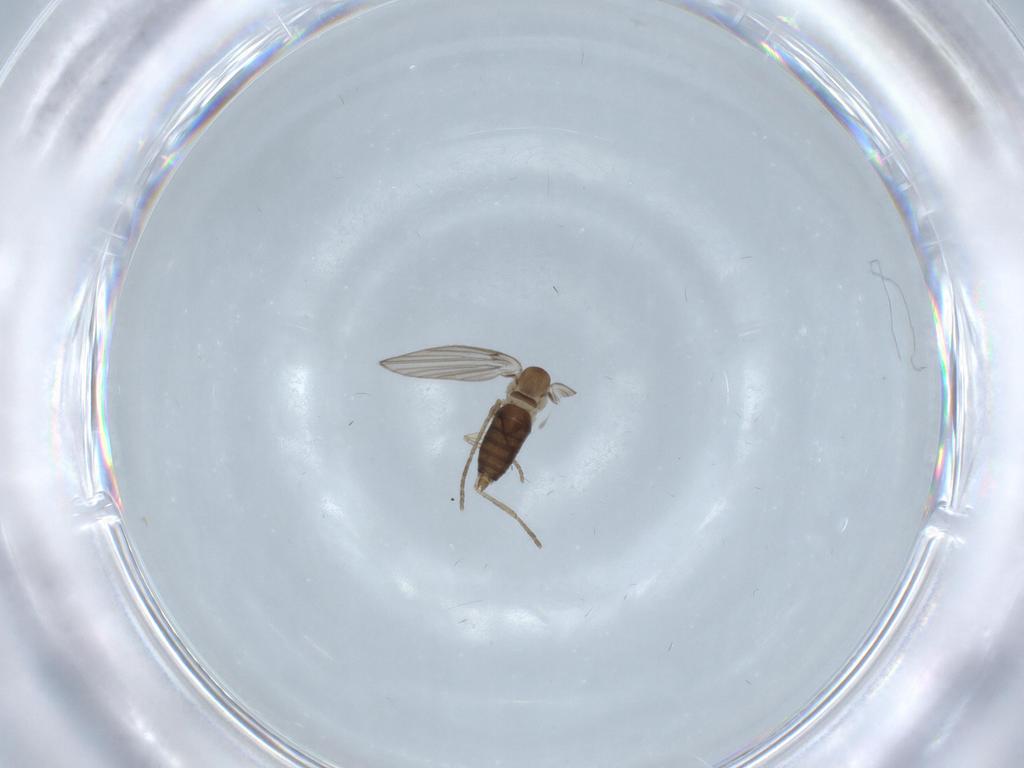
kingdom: Animalia
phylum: Arthropoda
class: Insecta
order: Diptera
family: Psychodidae
